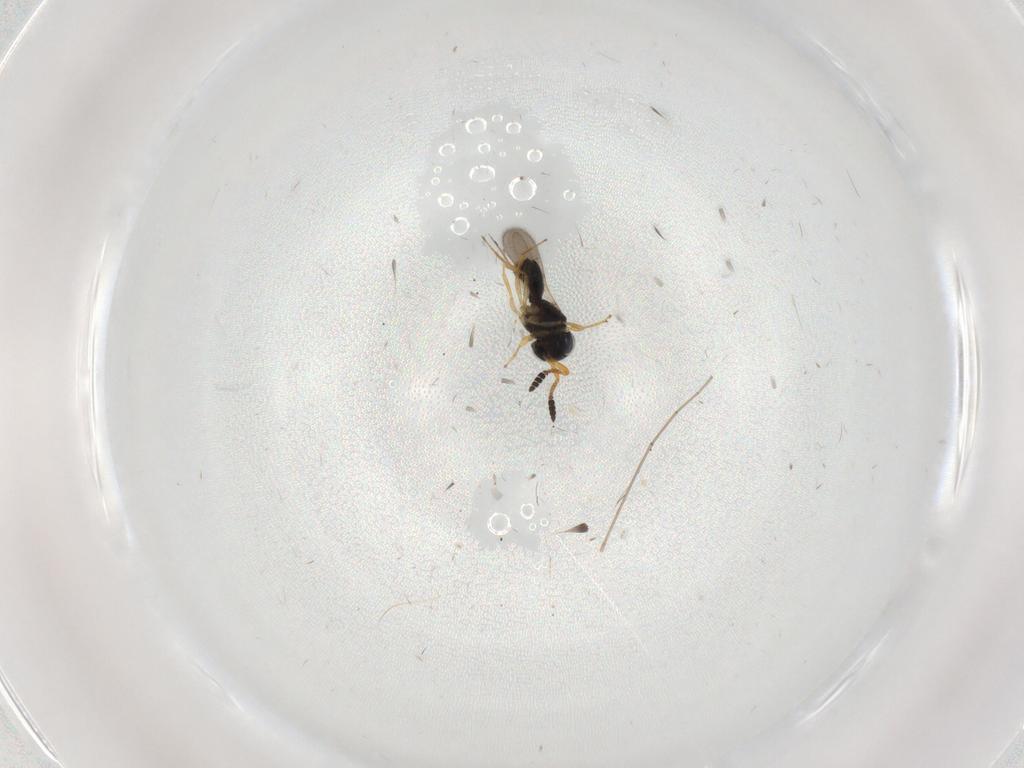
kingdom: Animalia
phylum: Arthropoda
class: Insecta
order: Hymenoptera
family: Scelionidae
